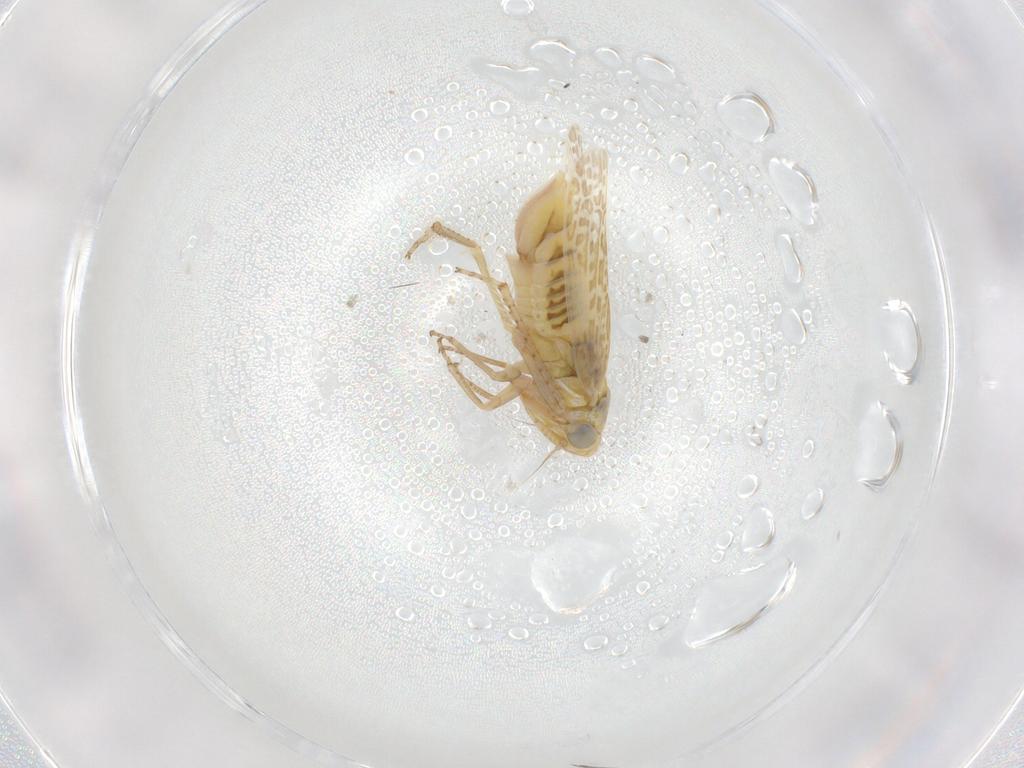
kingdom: Animalia
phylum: Arthropoda
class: Insecta
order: Hemiptera
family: Cicadellidae
